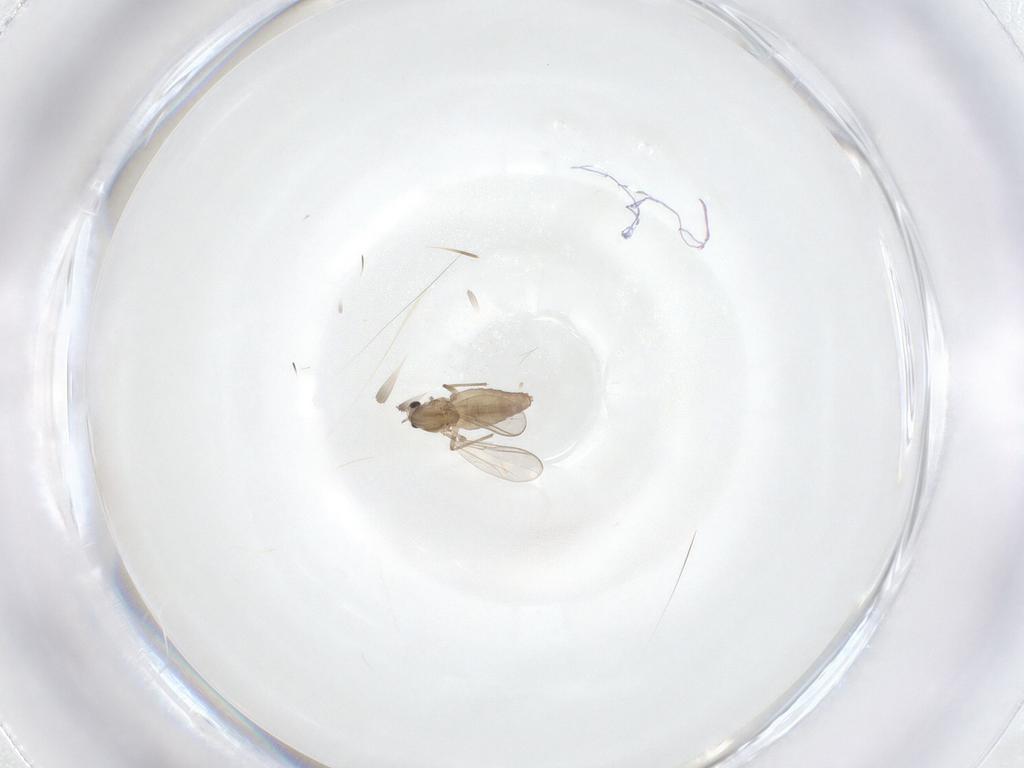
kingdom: Animalia
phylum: Arthropoda
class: Insecta
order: Diptera
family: Chironomidae
